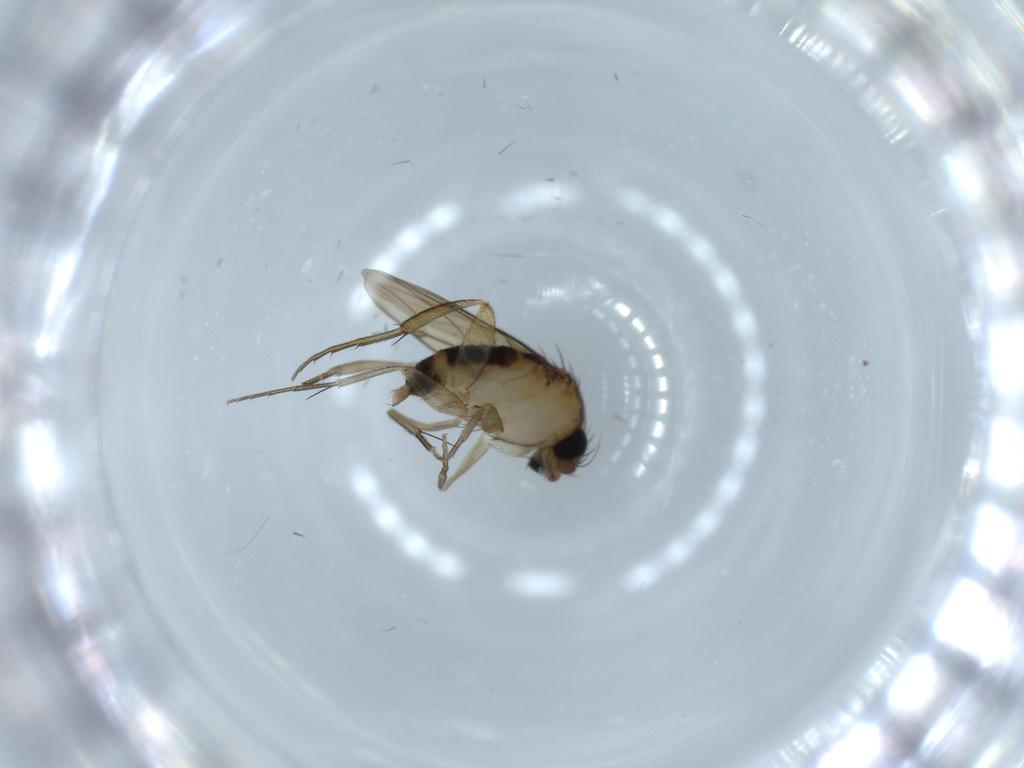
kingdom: Animalia
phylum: Arthropoda
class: Insecta
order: Diptera
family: Phoridae
